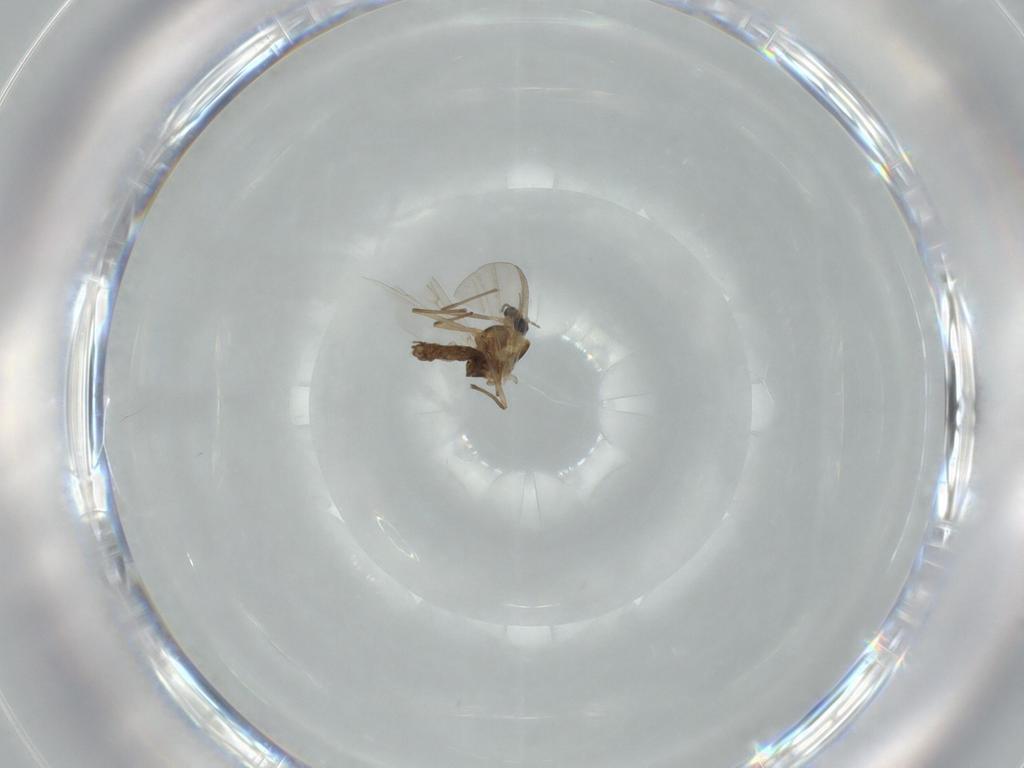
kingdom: Animalia
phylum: Arthropoda
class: Insecta
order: Diptera
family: Chironomidae
